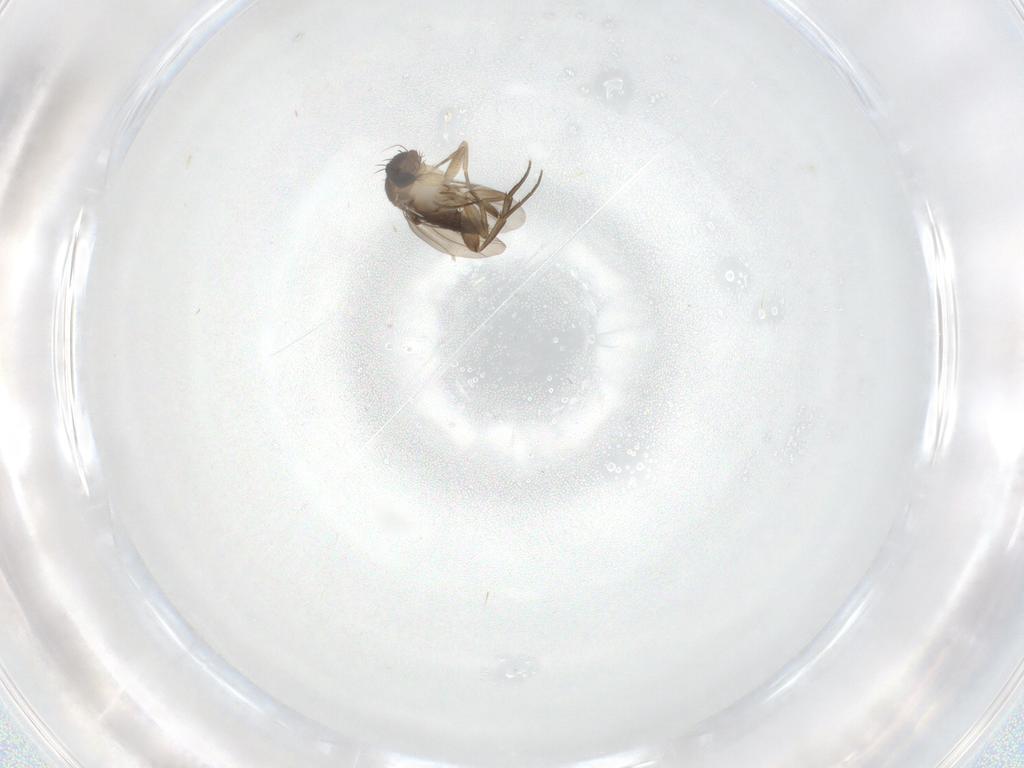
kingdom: Animalia
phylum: Arthropoda
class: Insecta
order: Diptera
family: Phoridae
